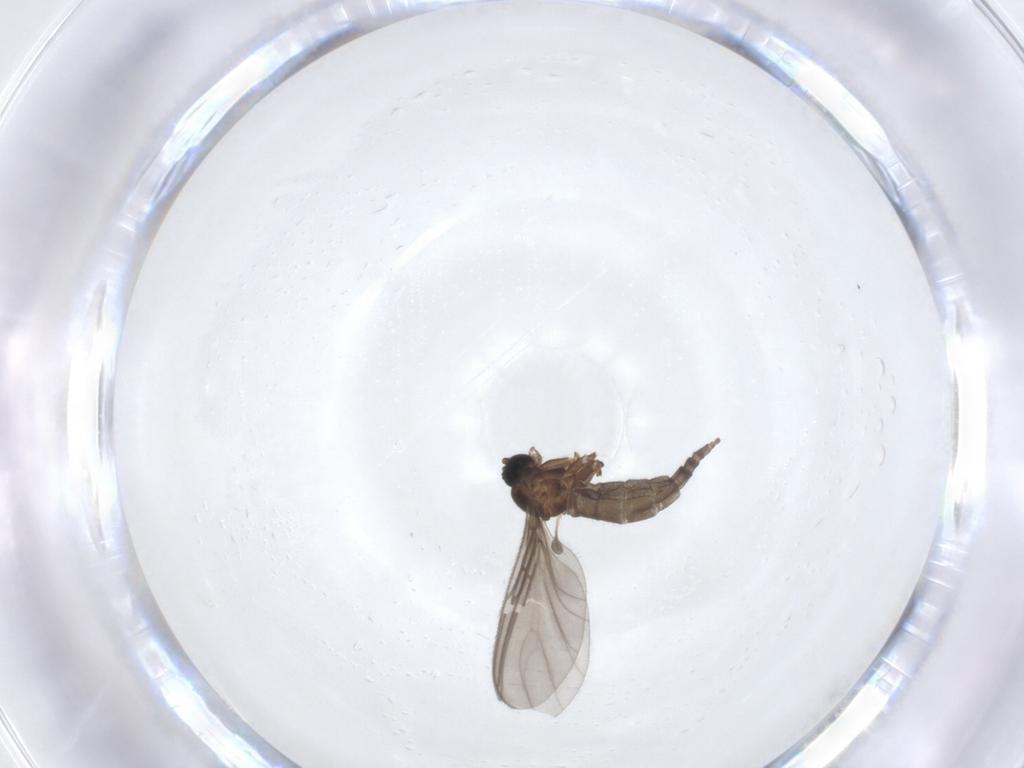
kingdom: Animalia
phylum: Arthropoda
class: Insecta
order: Diptera
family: Sciaridae
